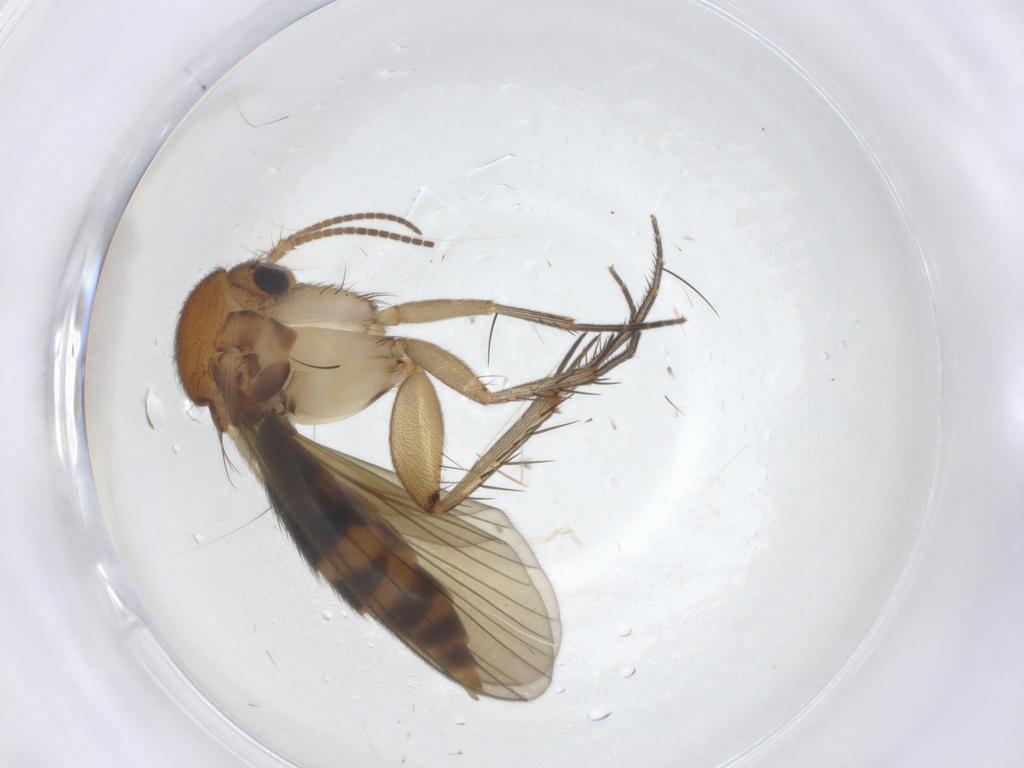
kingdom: Animalia
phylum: Arthropoda
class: Insecta
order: Diptera
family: Mycetophilidae
